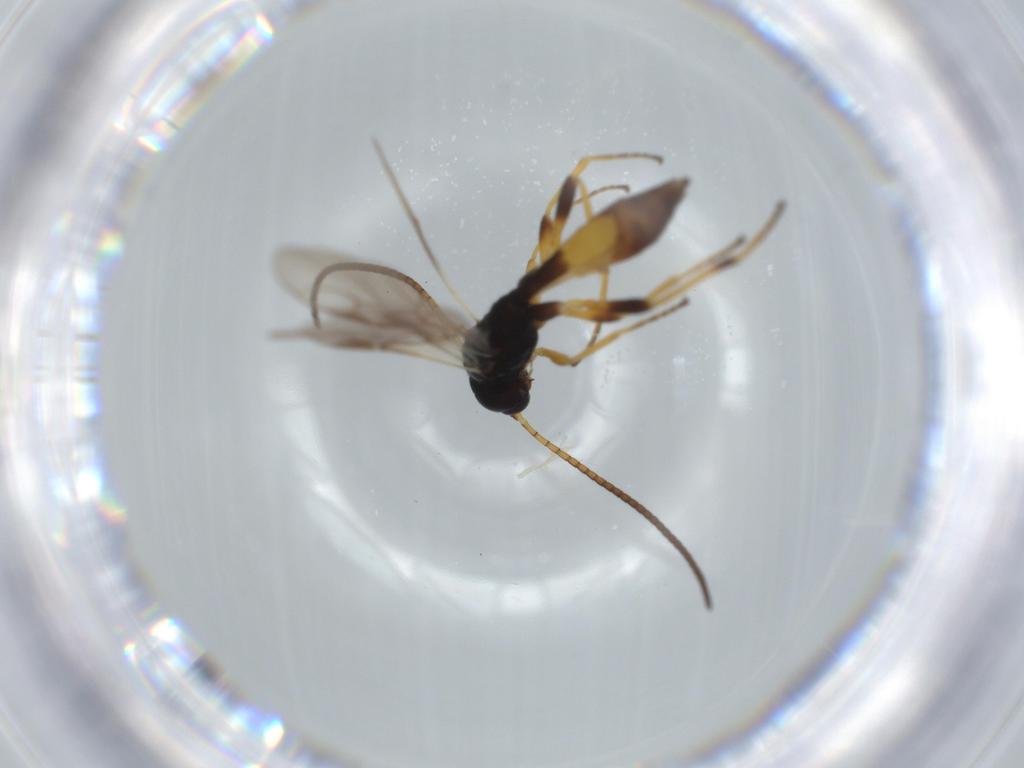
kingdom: Animalia
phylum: Arthropoda
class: Insecta
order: Hymenoptera
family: Braconidae
